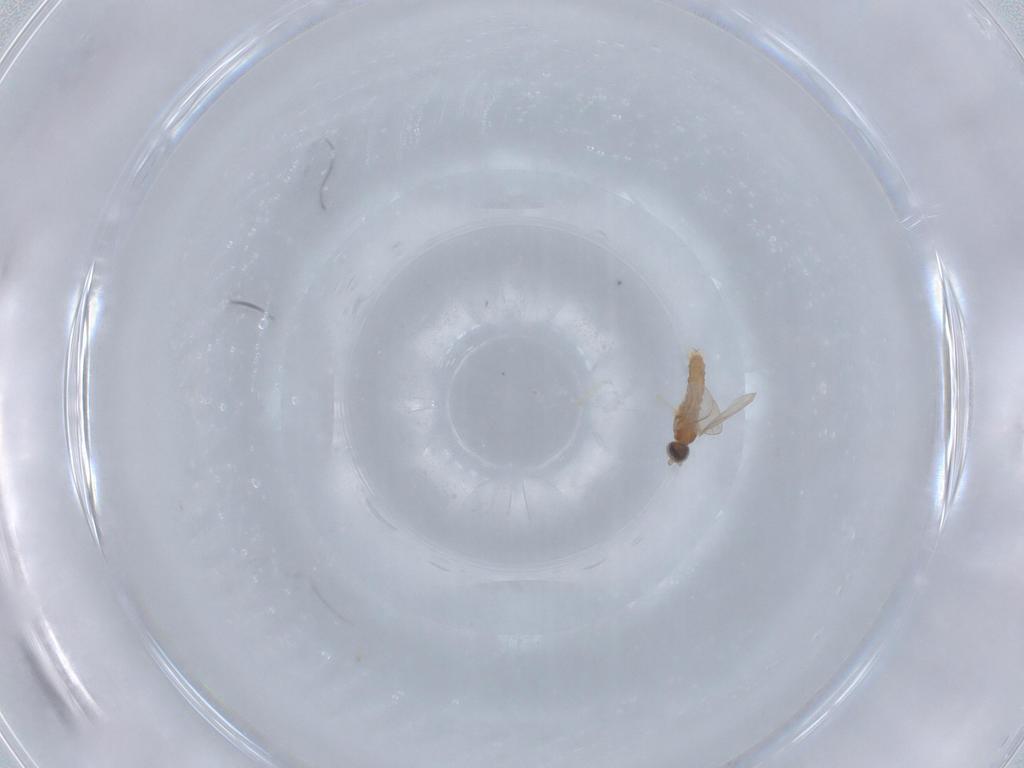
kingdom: Animalia
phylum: Arthropoda
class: Insecta
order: Diptera
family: Cecidomyiidae
